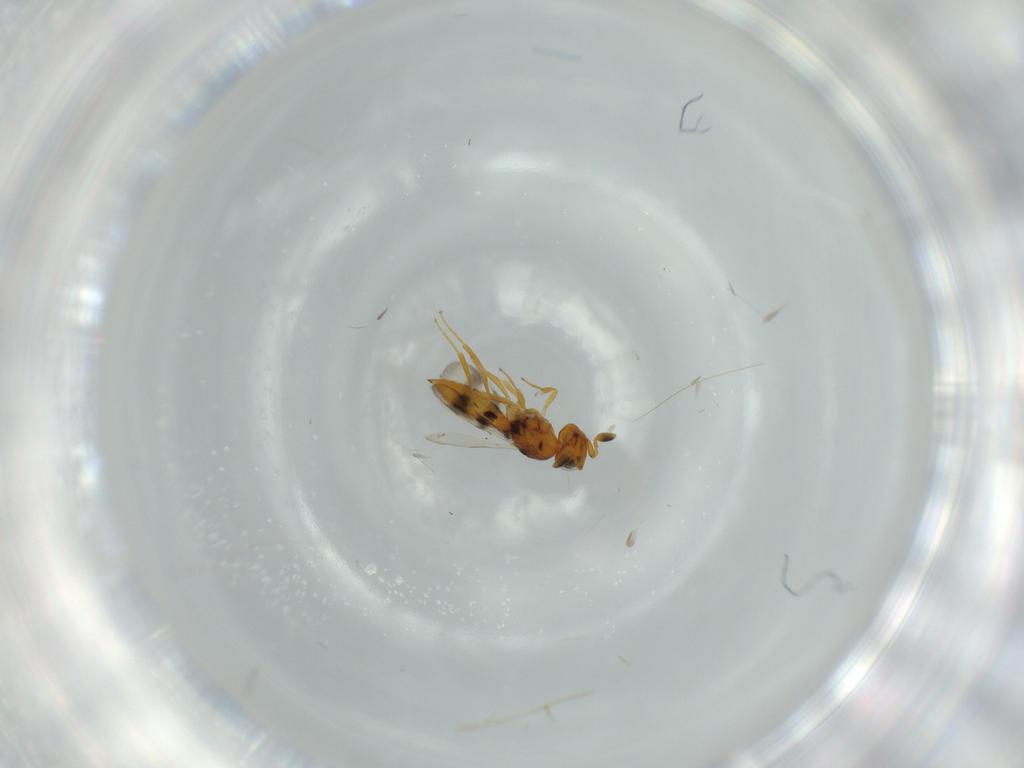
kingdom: Animalia
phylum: Arthropoda
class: Insecta
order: Hymenoptera
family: Scelionidae
